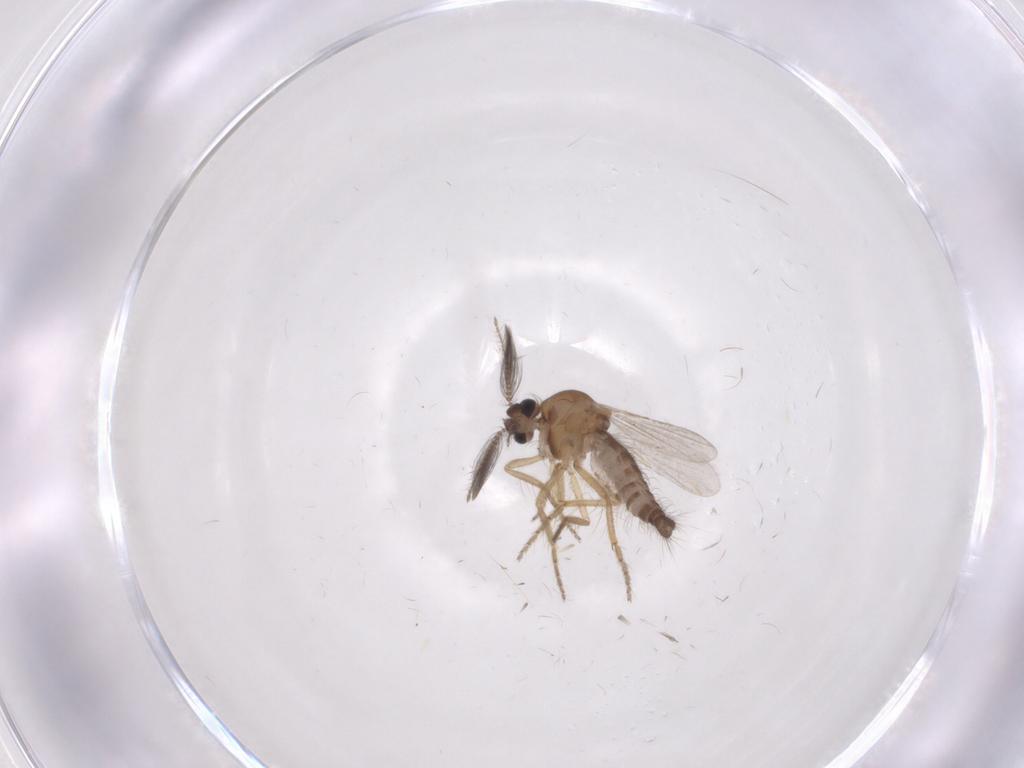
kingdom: Animalia
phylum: Arthropoda
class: Insecta
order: Diptera
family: Ceratopogonidae
